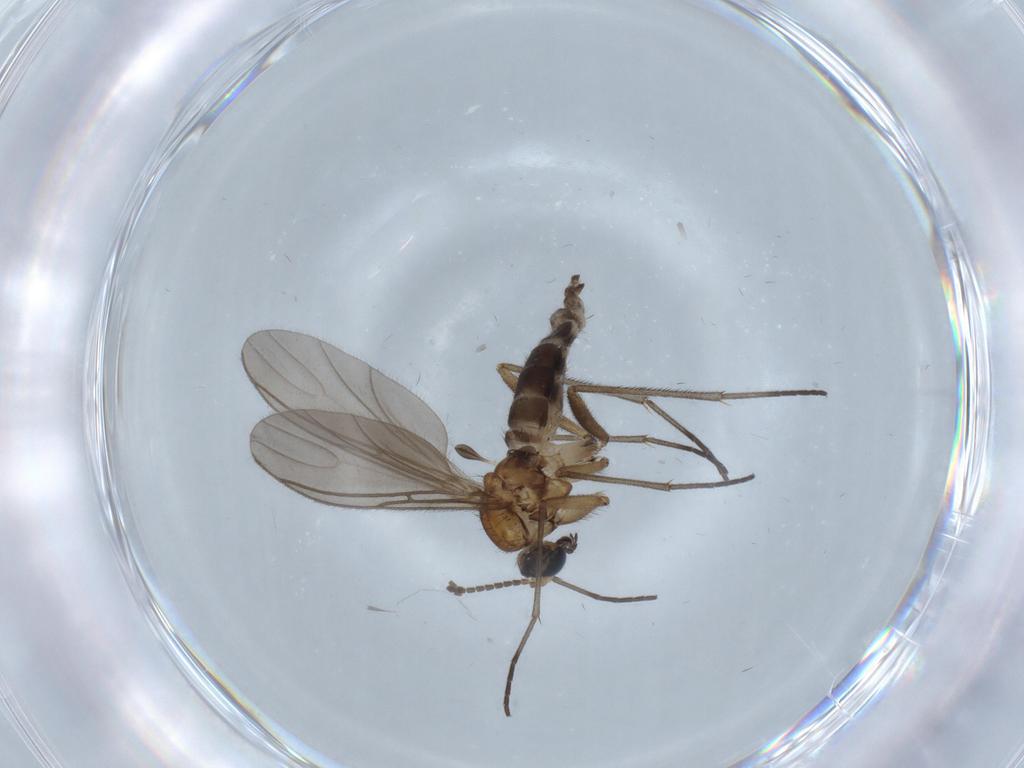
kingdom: Animalia
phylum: Arthropoda
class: Insecta
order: Diptera
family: Sciaridae
